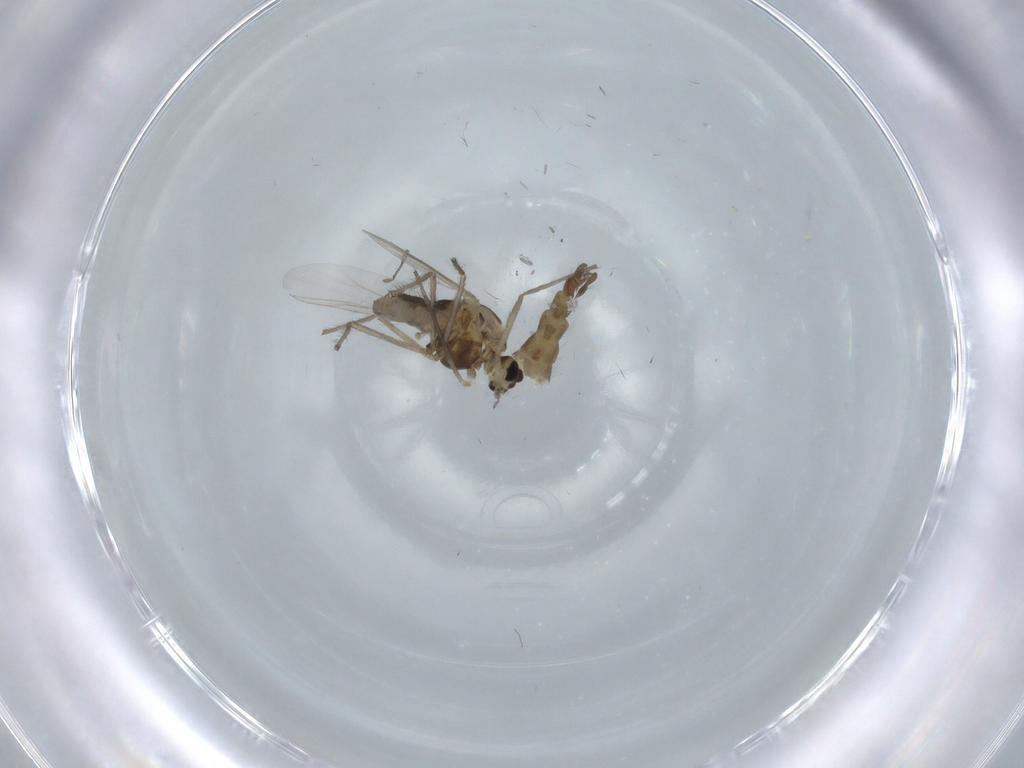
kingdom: Animalia
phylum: Arthropoda
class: Insecta
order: Diptera
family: Chironomidae
